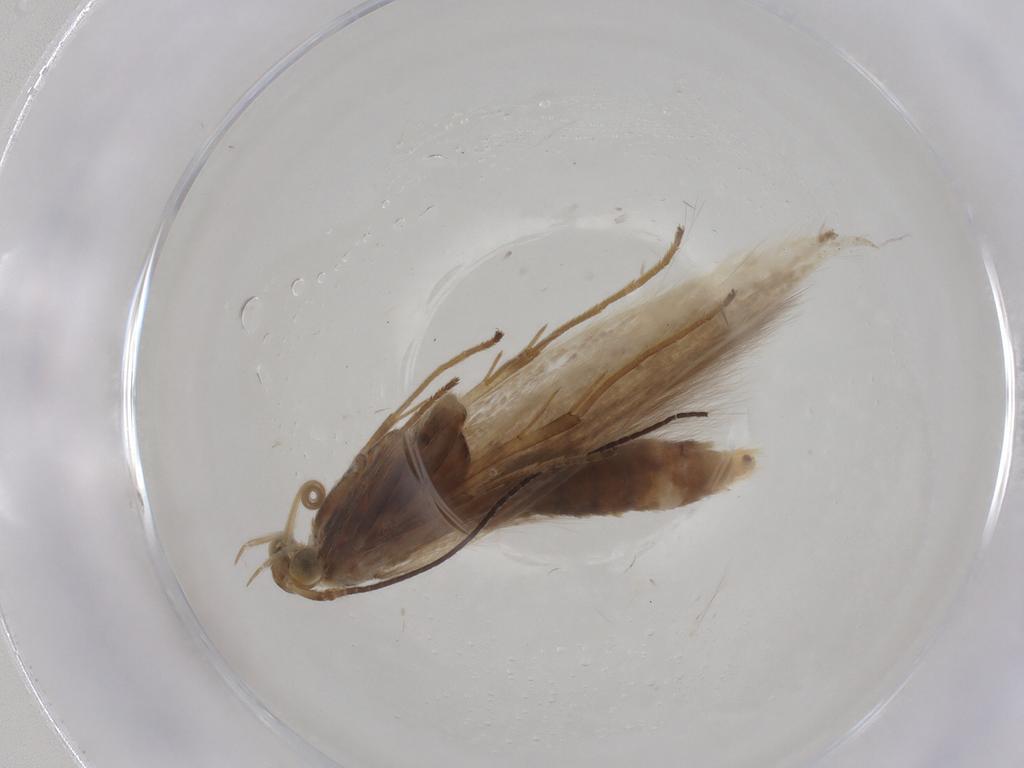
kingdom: Animalia
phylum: Arthropoda
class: Insecta
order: Lepidoptera
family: Coleophoridae
